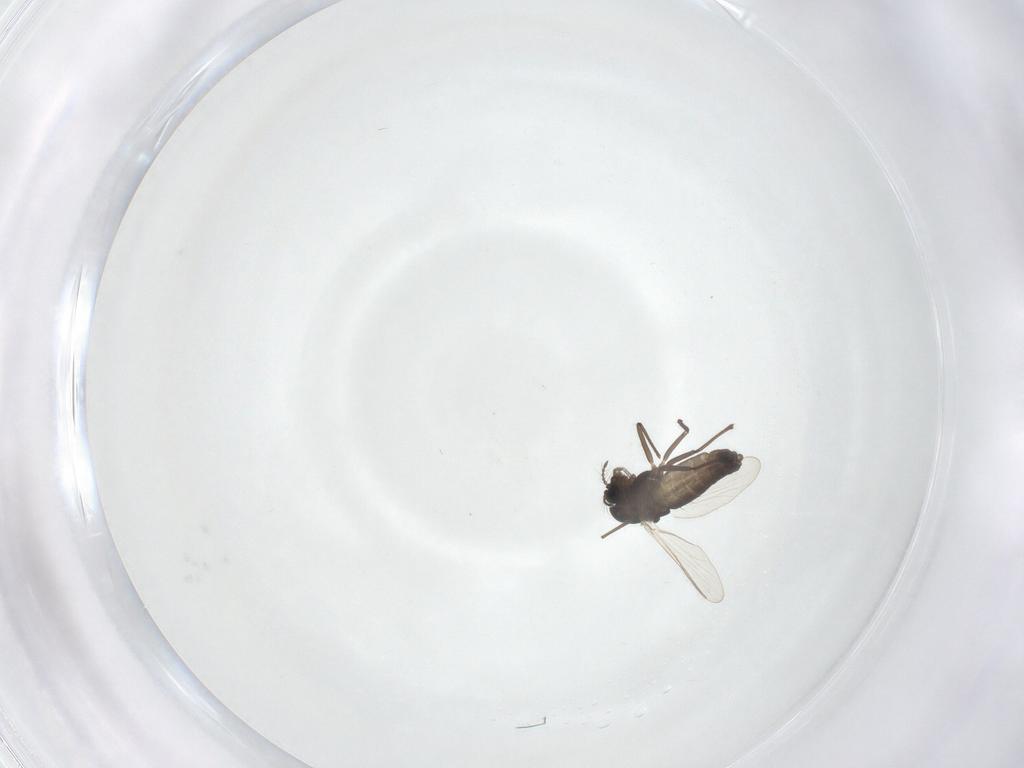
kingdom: Animalia
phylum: Arthropoda
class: Insecta
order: Diptera
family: Chironomidae
